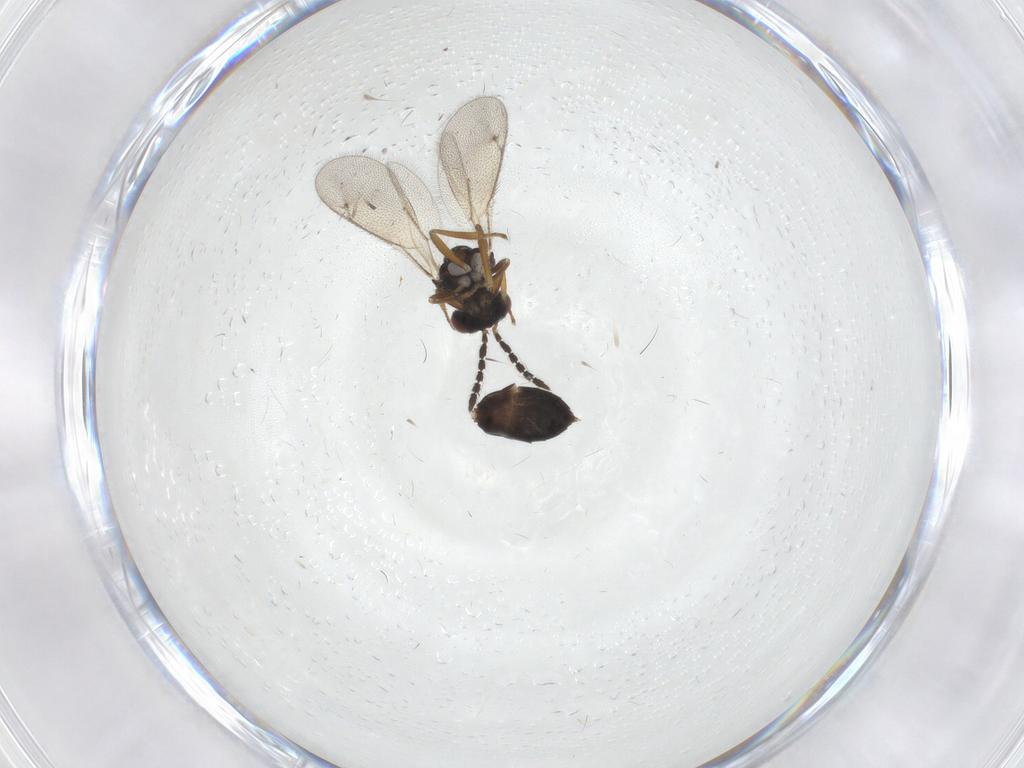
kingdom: Animalia
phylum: Arthropoda
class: Insecta
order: Hymenoptera
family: Eulophidae
